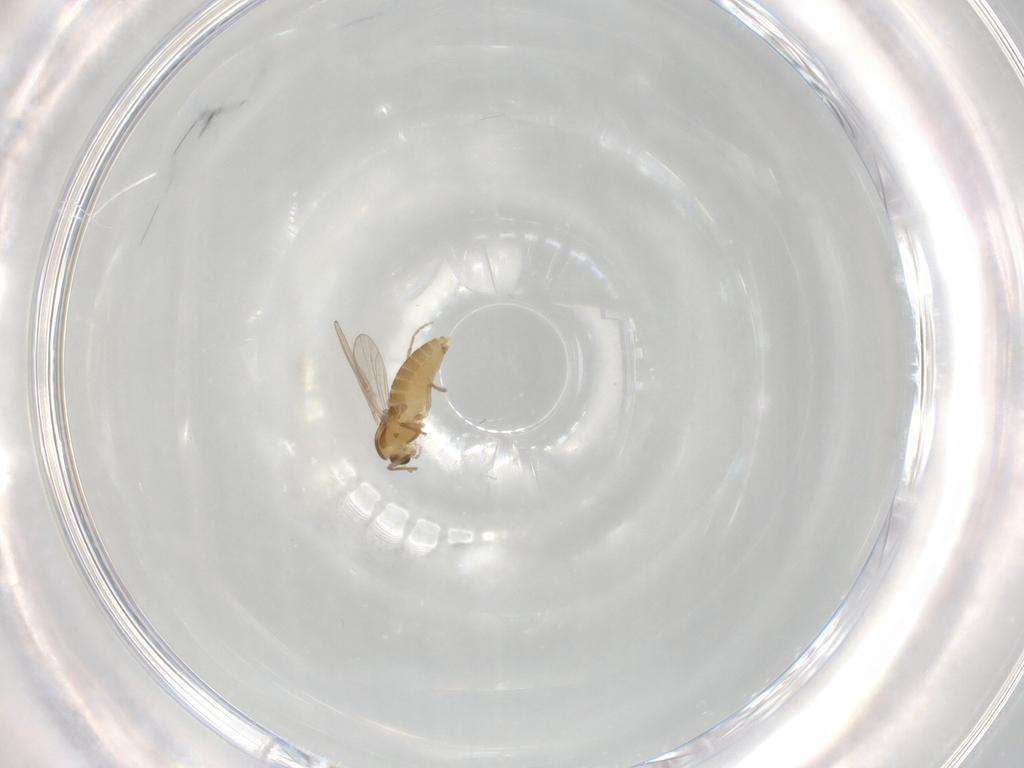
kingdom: Animalia
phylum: Arthropoda
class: Insecta
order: Diptera
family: Chironomidae
